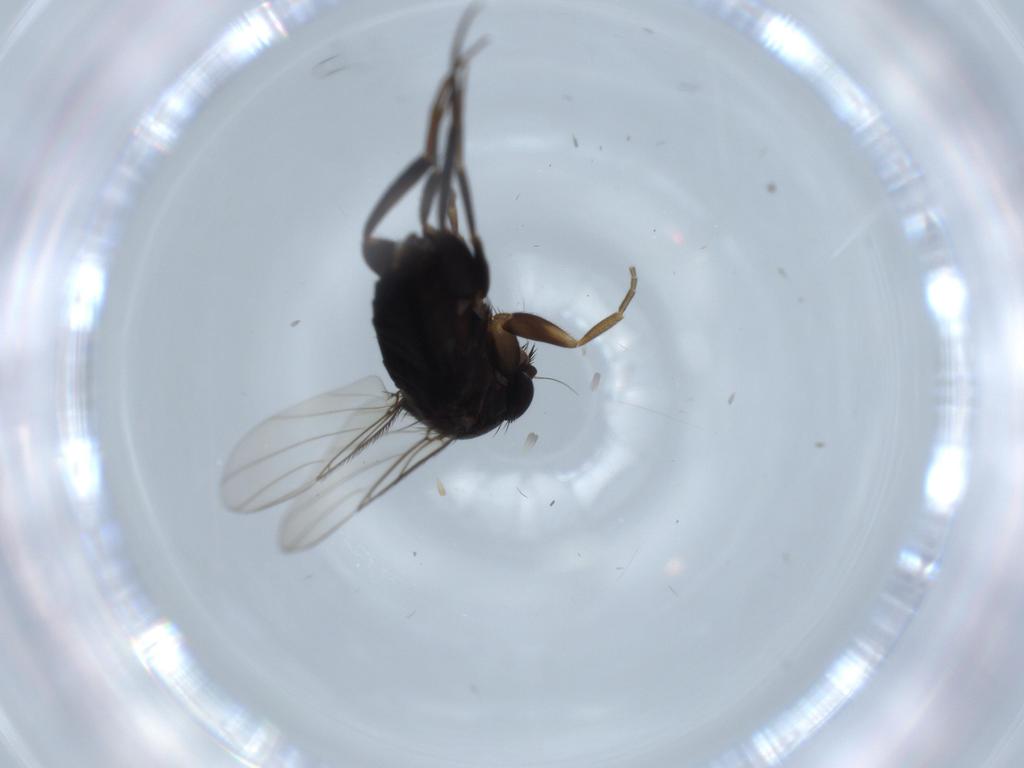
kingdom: Animalia
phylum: Arthropoda
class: Insecta
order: Diptera
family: Phoridae
